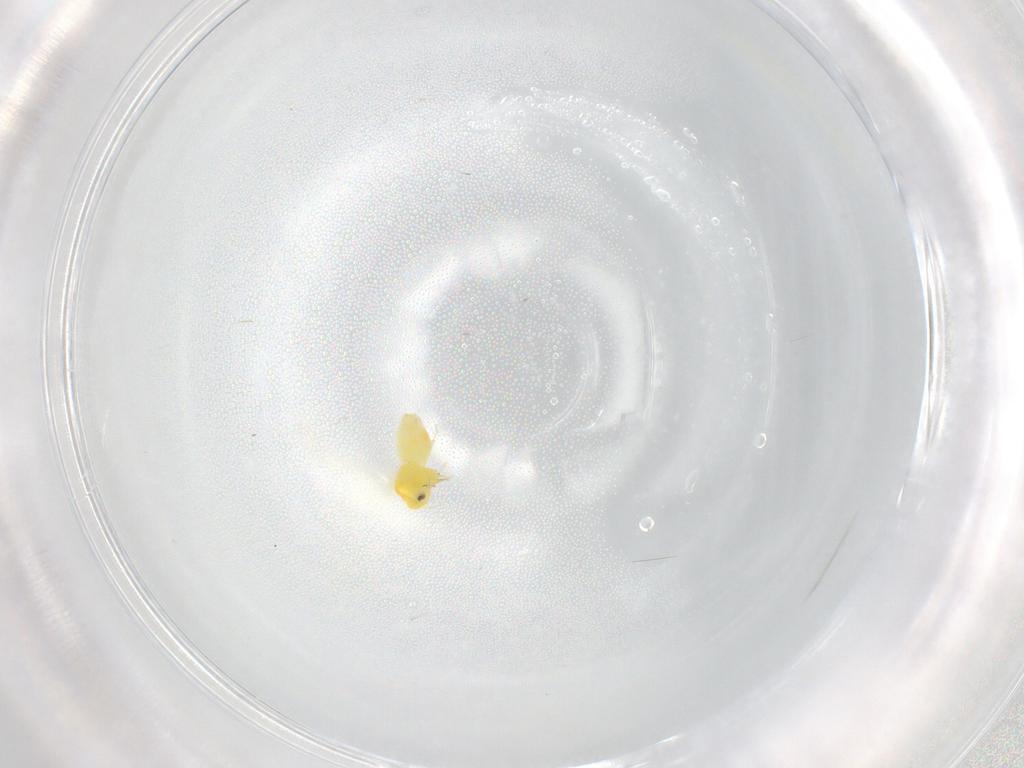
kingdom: Animalia
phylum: Arthropoda
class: Insecta
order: Hemiptera
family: Aleyrodidae
